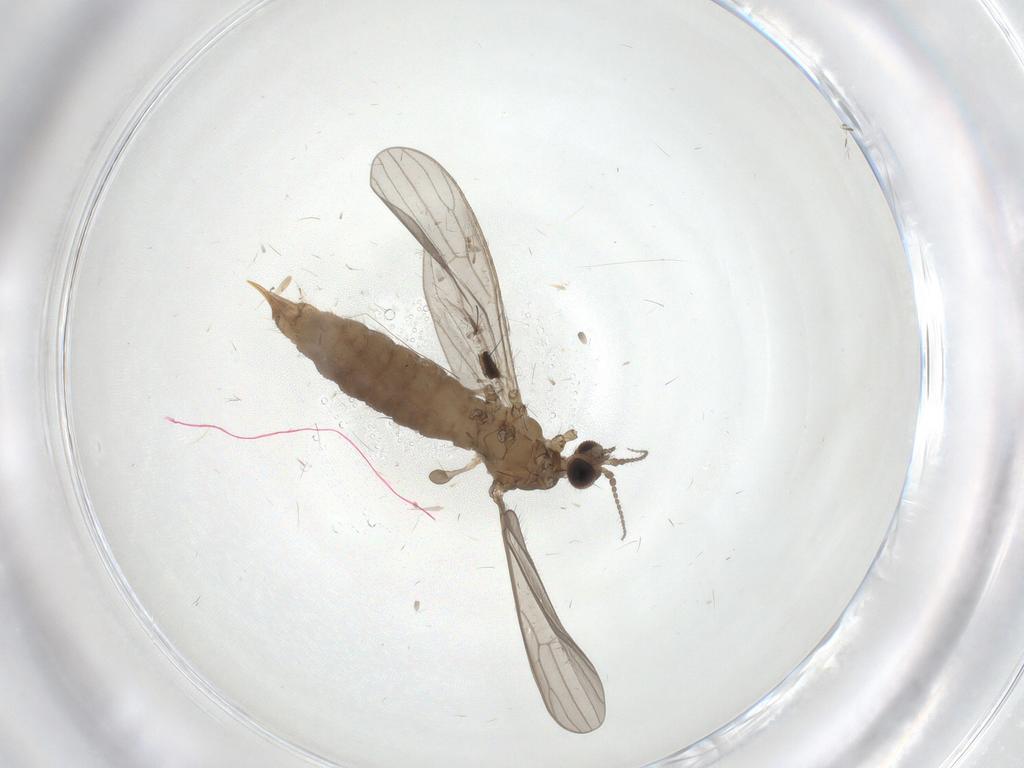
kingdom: Animalia
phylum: Arthropoda
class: Insecta
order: Diptera
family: Limoniidae
